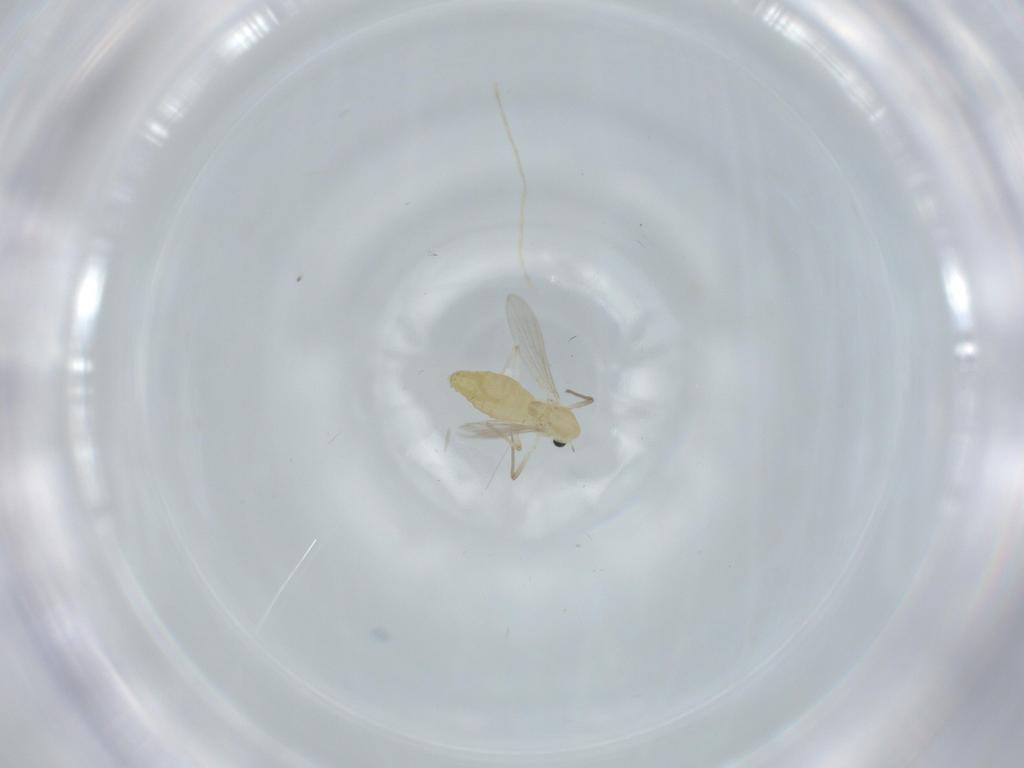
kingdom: Animalia
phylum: Arthropoda
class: Insecta
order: Diptera
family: Chironomidae
